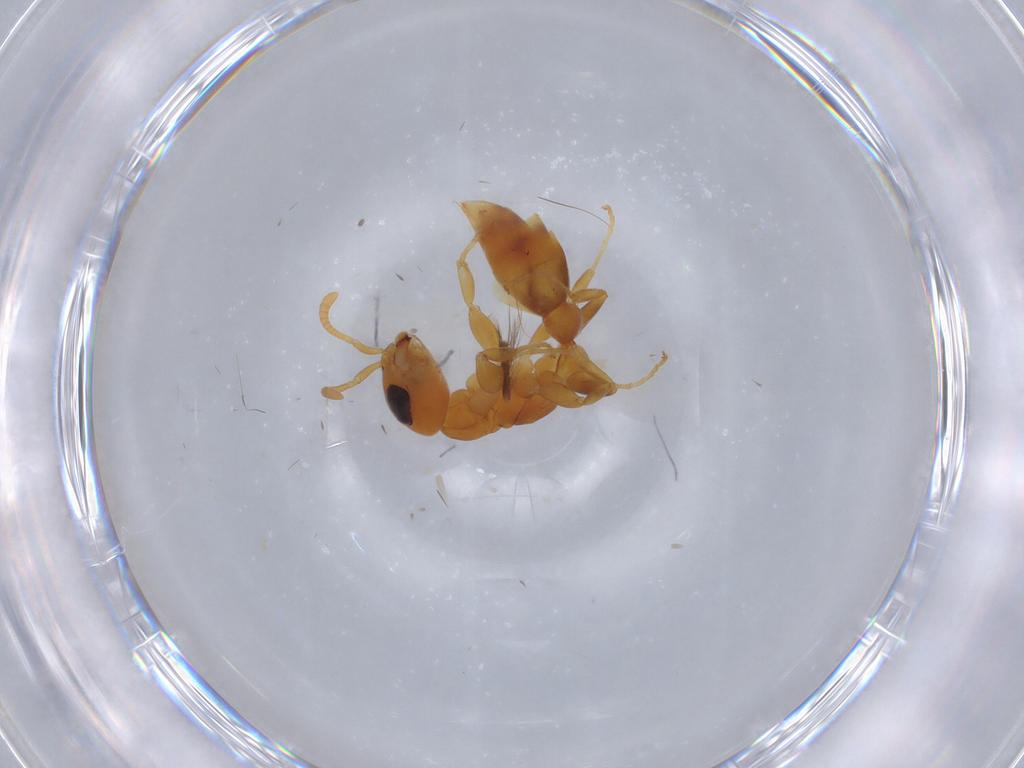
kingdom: Animalia
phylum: Arthropoda
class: Insecta
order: Hymenoptera
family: Formicidae
